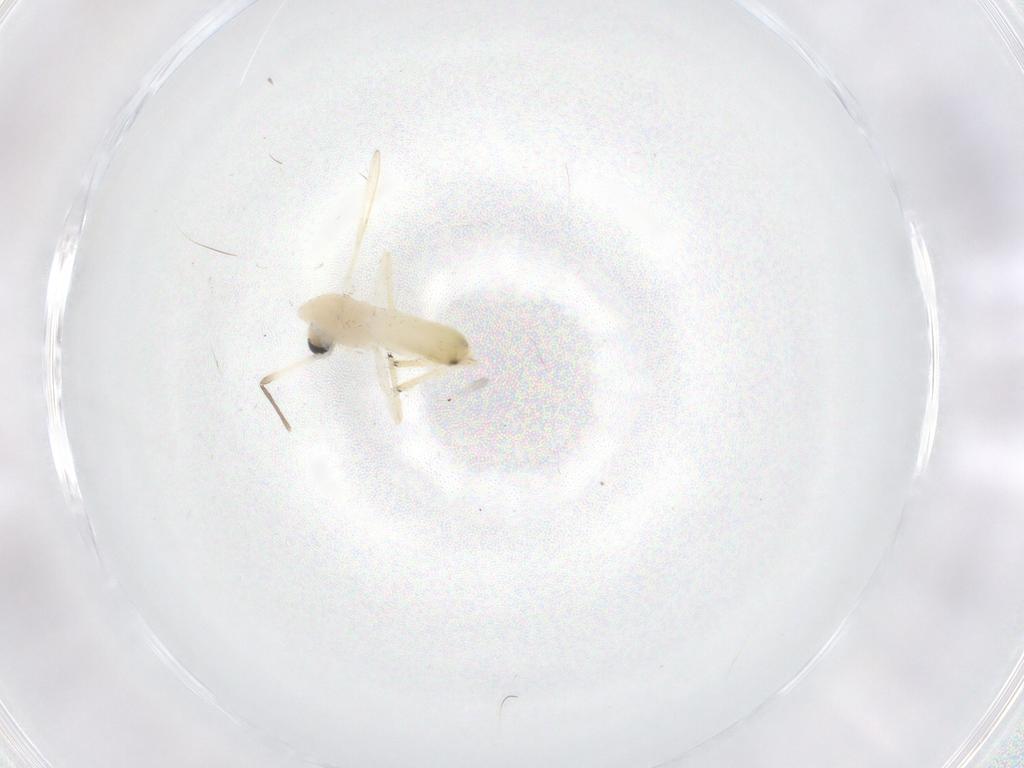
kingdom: Animalia
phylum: Arthropoda
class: Insecta
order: Diptera
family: Chironomidae
